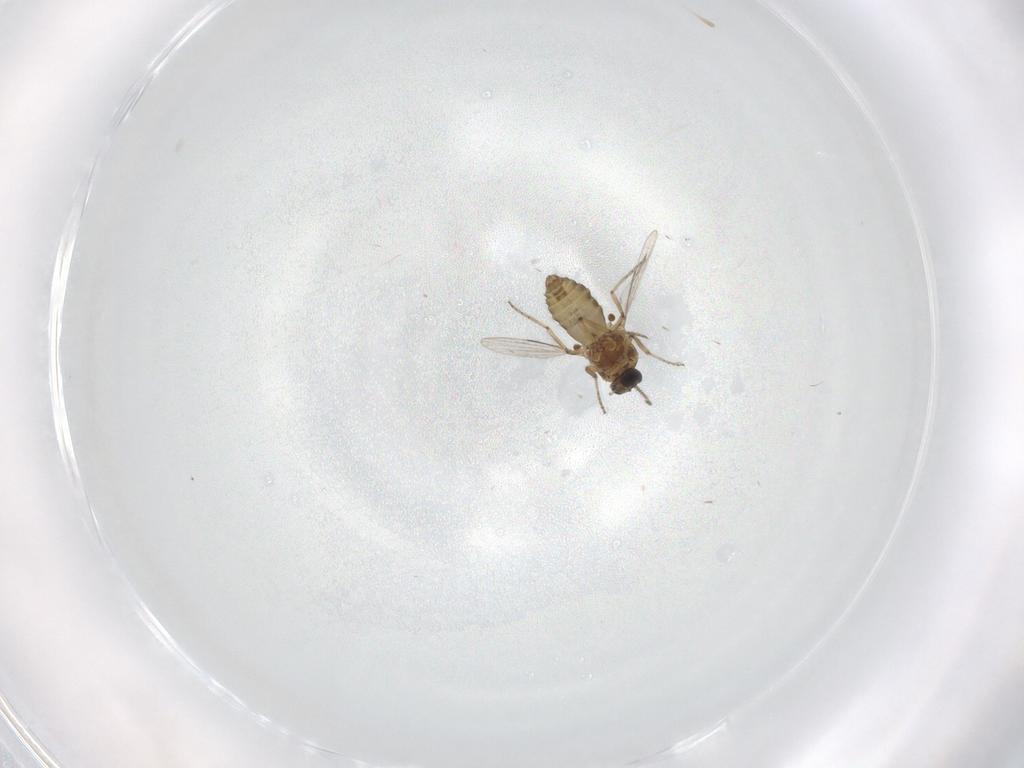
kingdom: Animalia
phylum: Arthropoda
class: Insecta
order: Diptera
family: Ceratopogonidae
